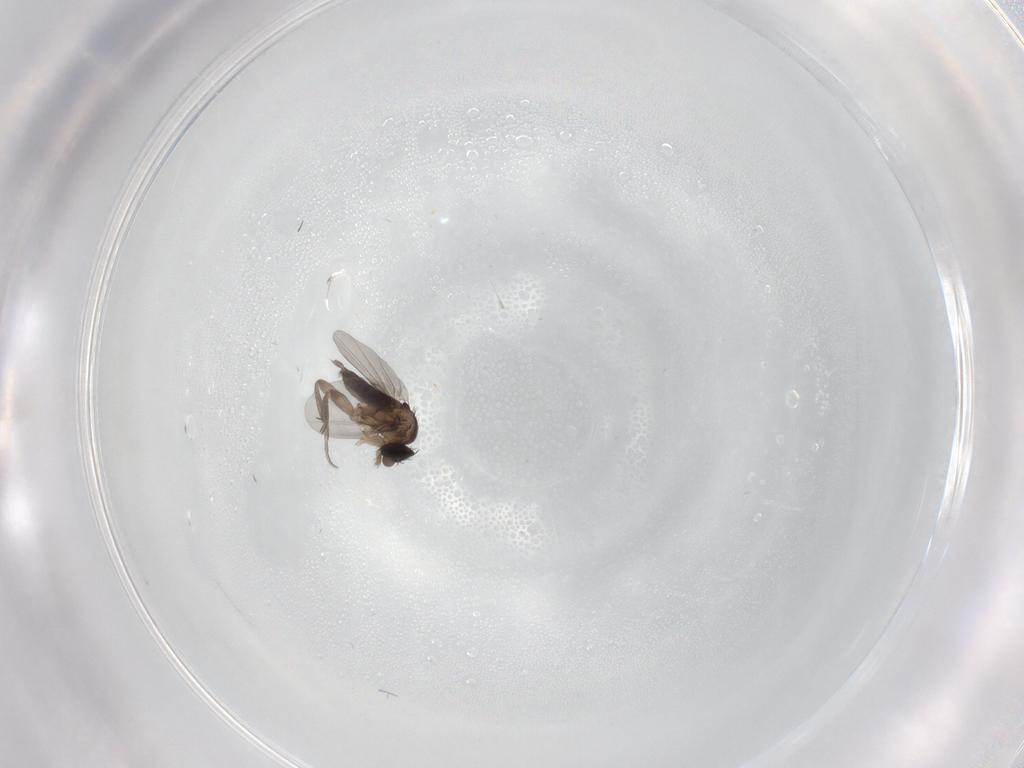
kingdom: Animalia
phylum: Arthropoda
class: Insecta
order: Diptera
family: Phoridae
